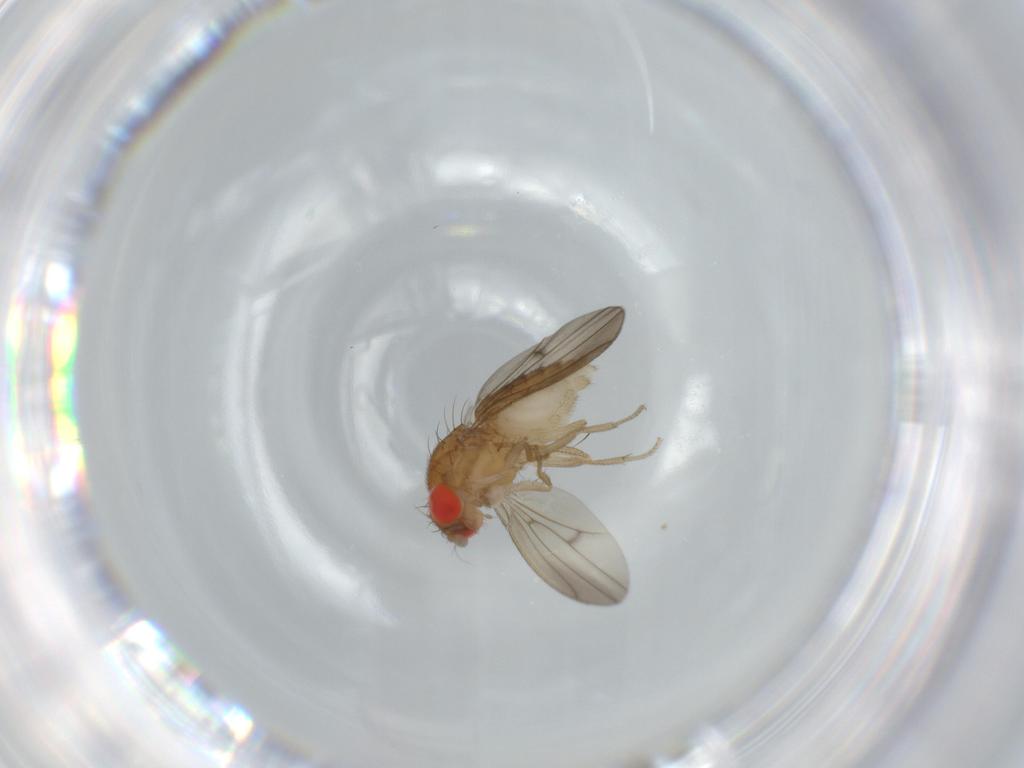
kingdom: Animalia
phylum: Arthropoda
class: Insecta
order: Diptera
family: Drosophilidae
